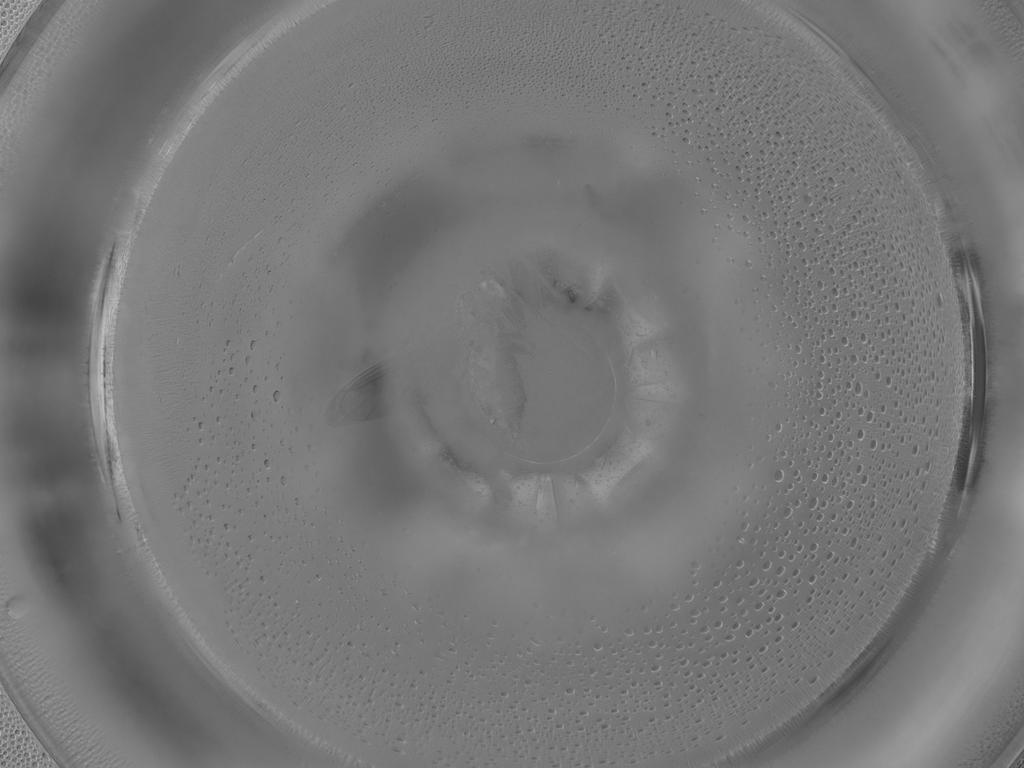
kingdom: Animalia
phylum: Arthropoda
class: Insecta
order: Diptera
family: Sciaridae
